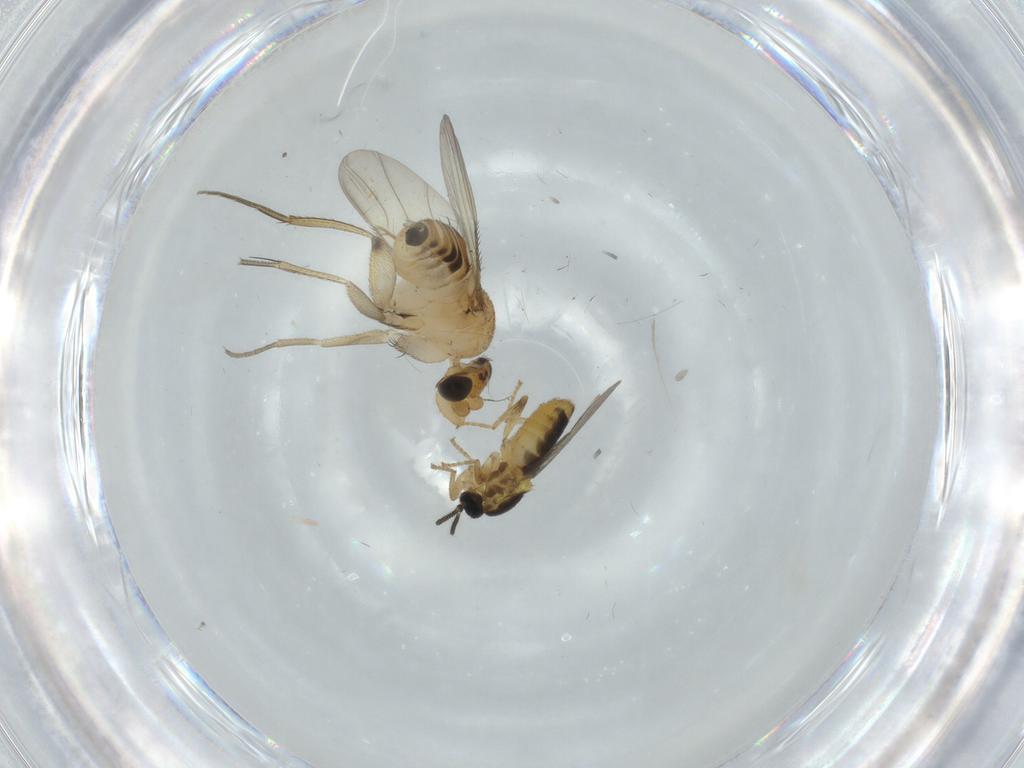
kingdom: Animalia
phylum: Arthropoda
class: Insecta
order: Diptera
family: Scatopsidae
